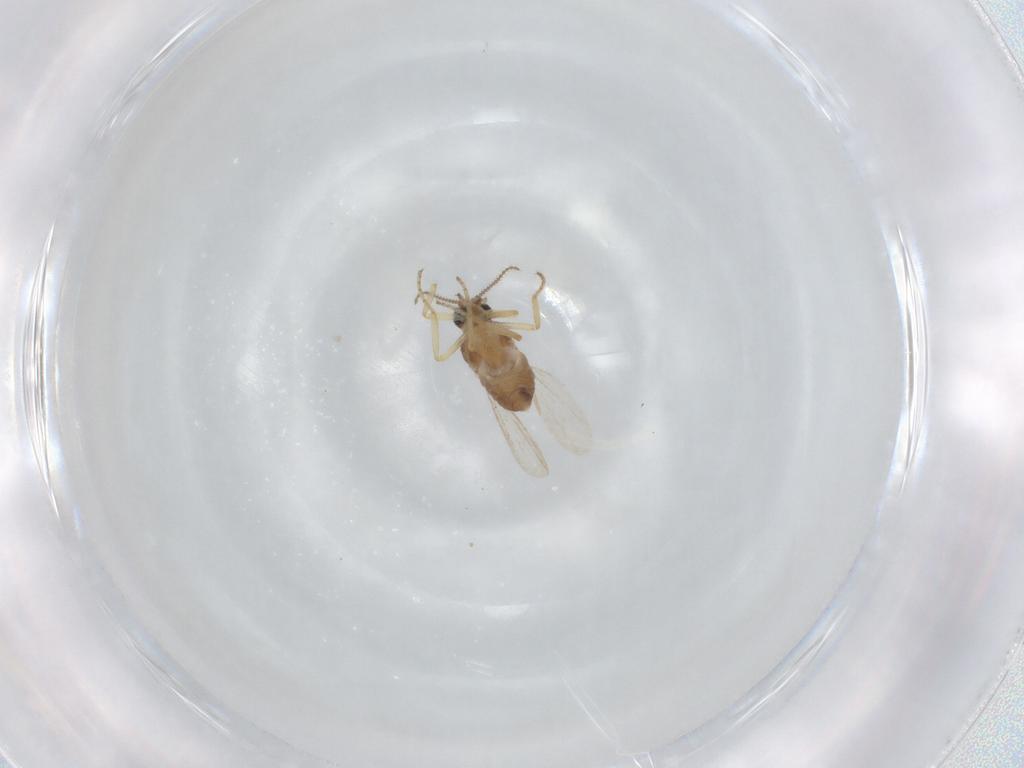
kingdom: Animalia
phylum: Arthropoda
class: Insecta
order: Diptera
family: Ceratopogonidae
